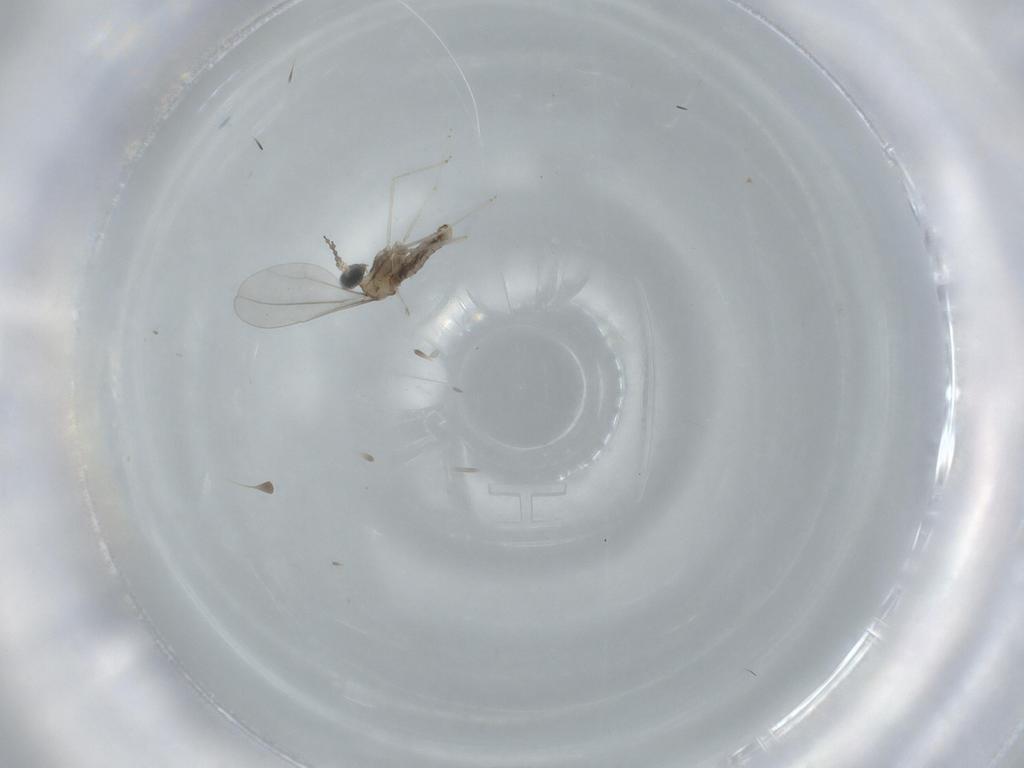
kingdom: Animalia
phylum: Arthropoda
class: Insecta
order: Diptera
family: Cecidomyiidae
